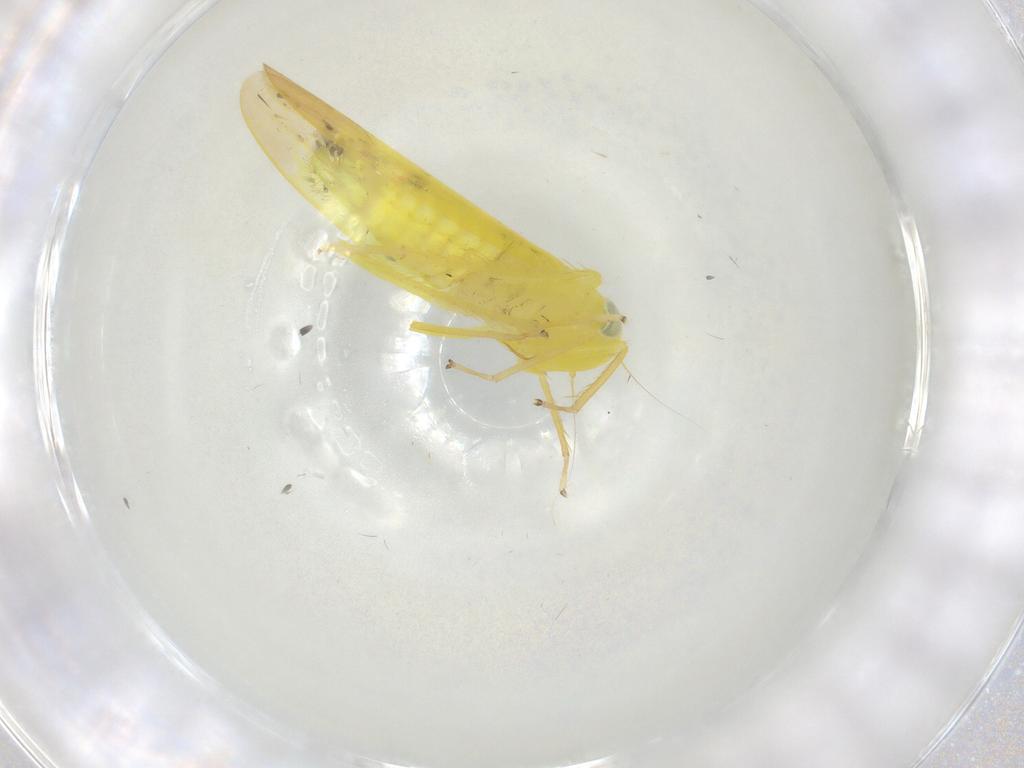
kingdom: Animalia
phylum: Arthropoda
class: Insecta
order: Hemiptera
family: Cicadellidae
